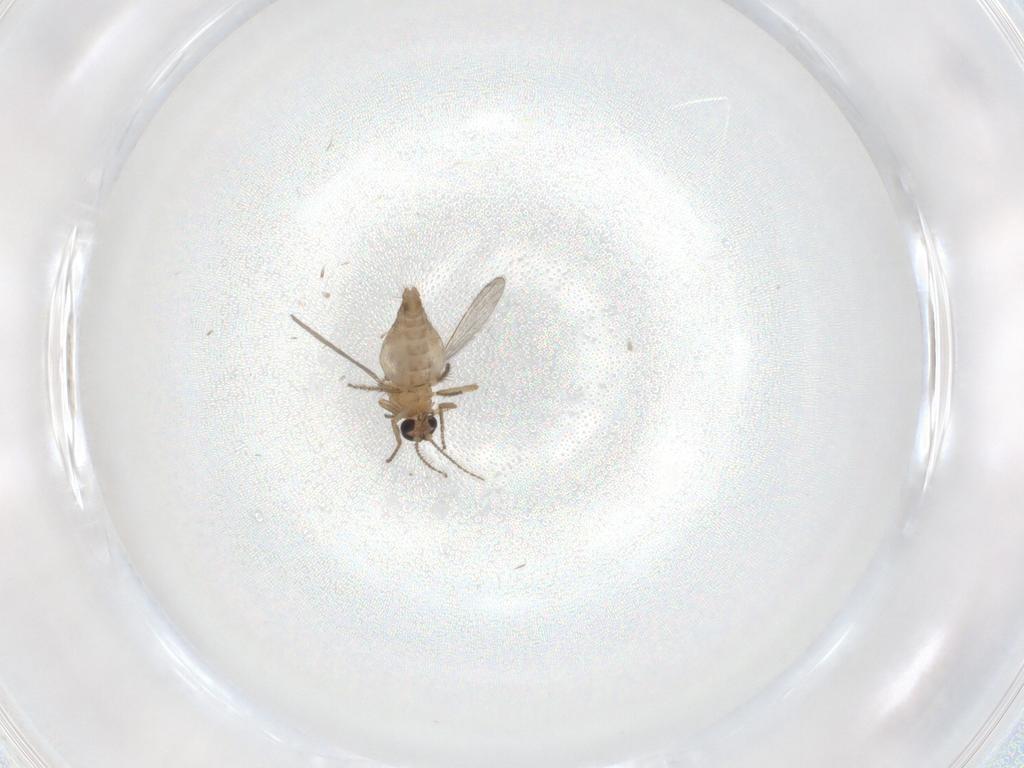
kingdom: Animalia
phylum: Arthropoda
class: Insecta
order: Diptera
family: Ceratopogonidae
